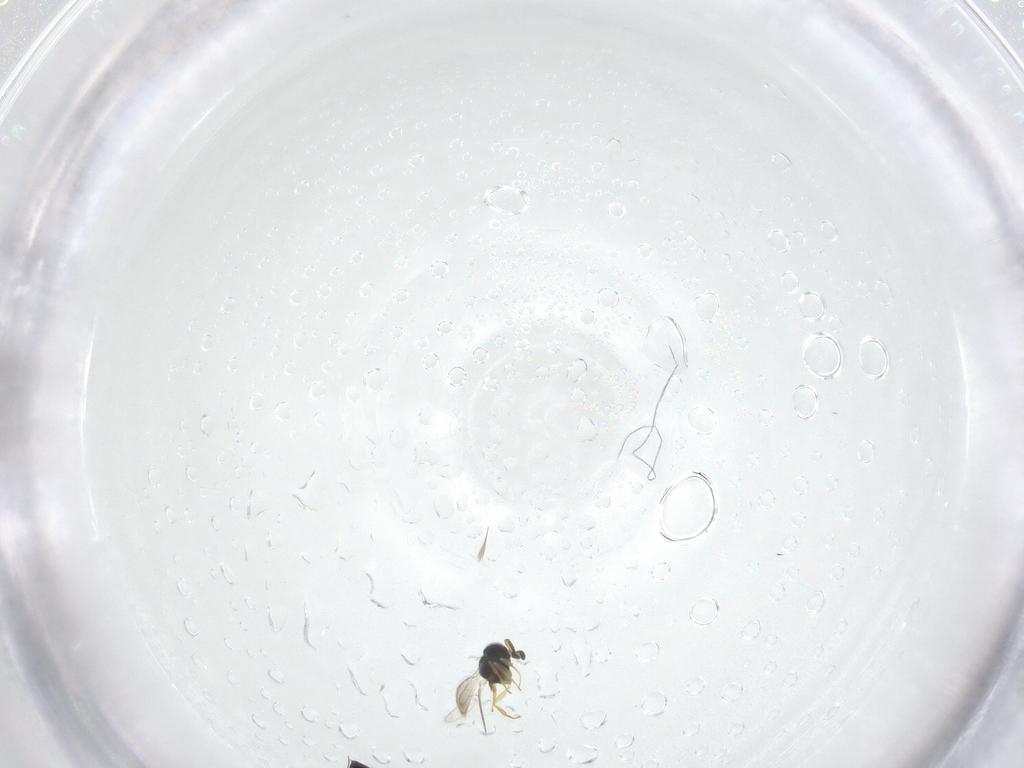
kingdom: Animalia
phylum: Arthropoda
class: Insecta
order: Hymenoptera
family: Scelionidae
